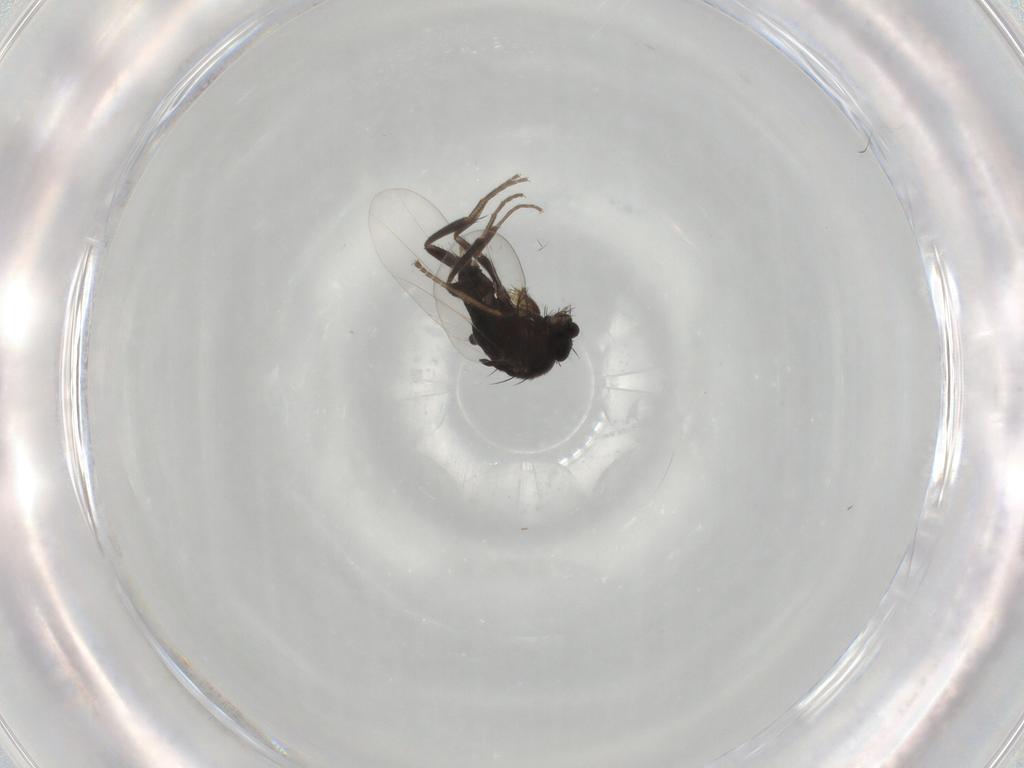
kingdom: Animalia
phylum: Arthropoda
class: Insecta
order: Diptera
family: Phoridae
